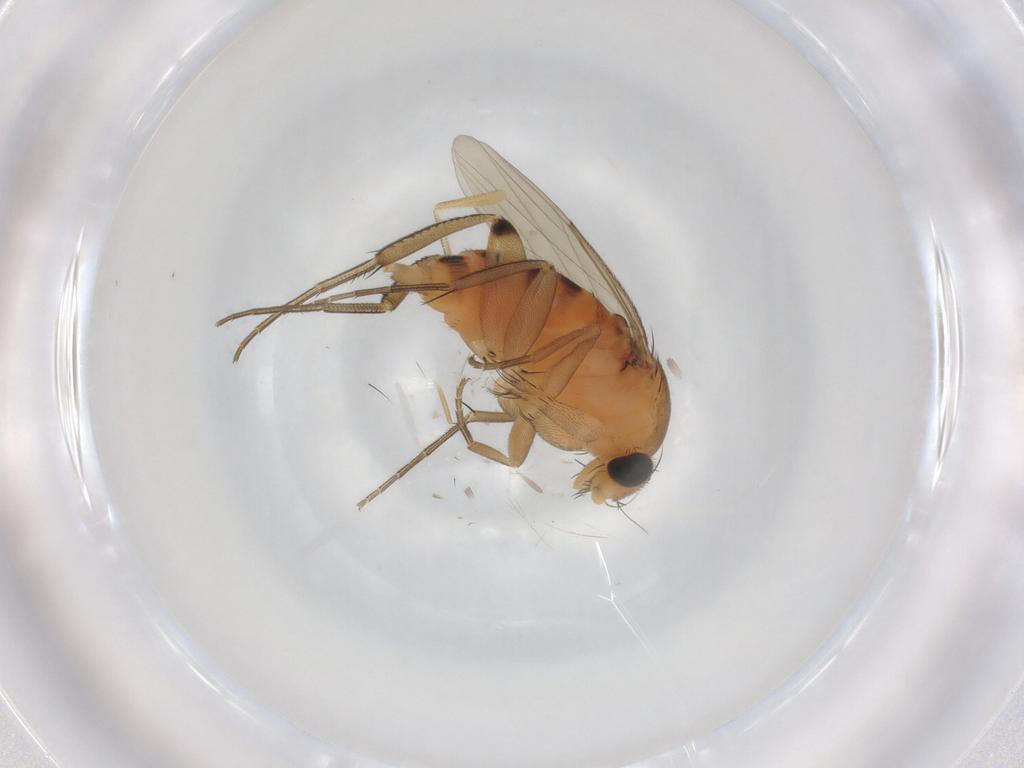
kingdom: Animalia
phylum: Arthropoda
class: Insecta
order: Diptera
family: Phoridae
